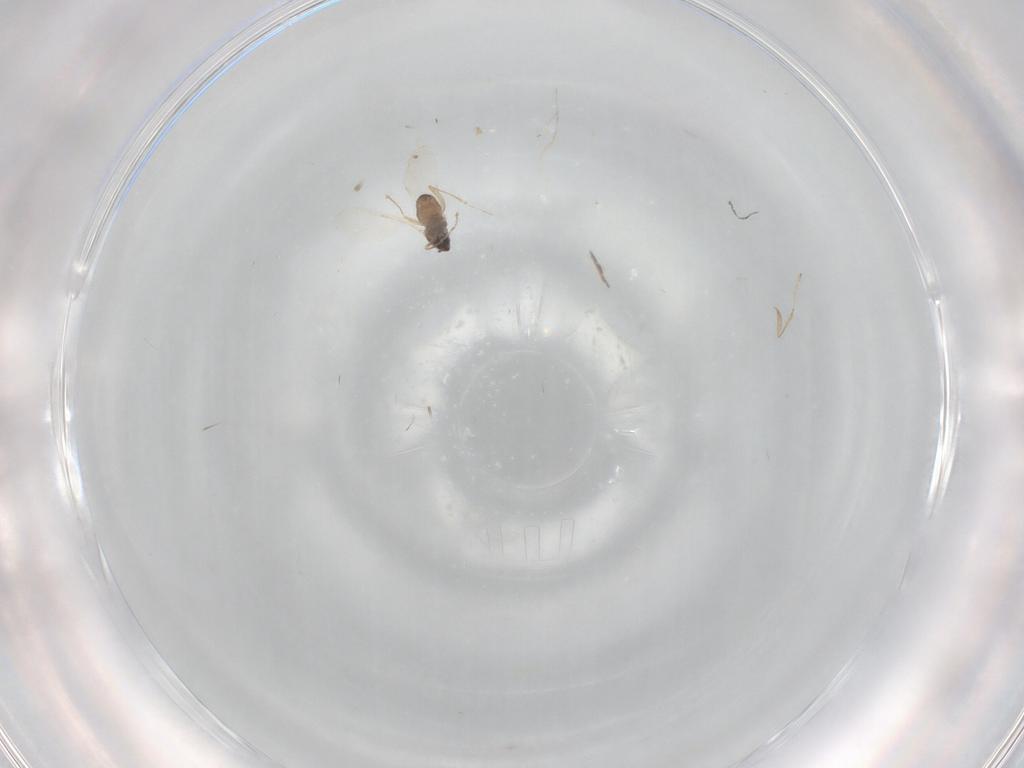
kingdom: Animalia
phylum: Arthropoda
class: Insecta
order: Diptera
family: Cecidomyiidae
